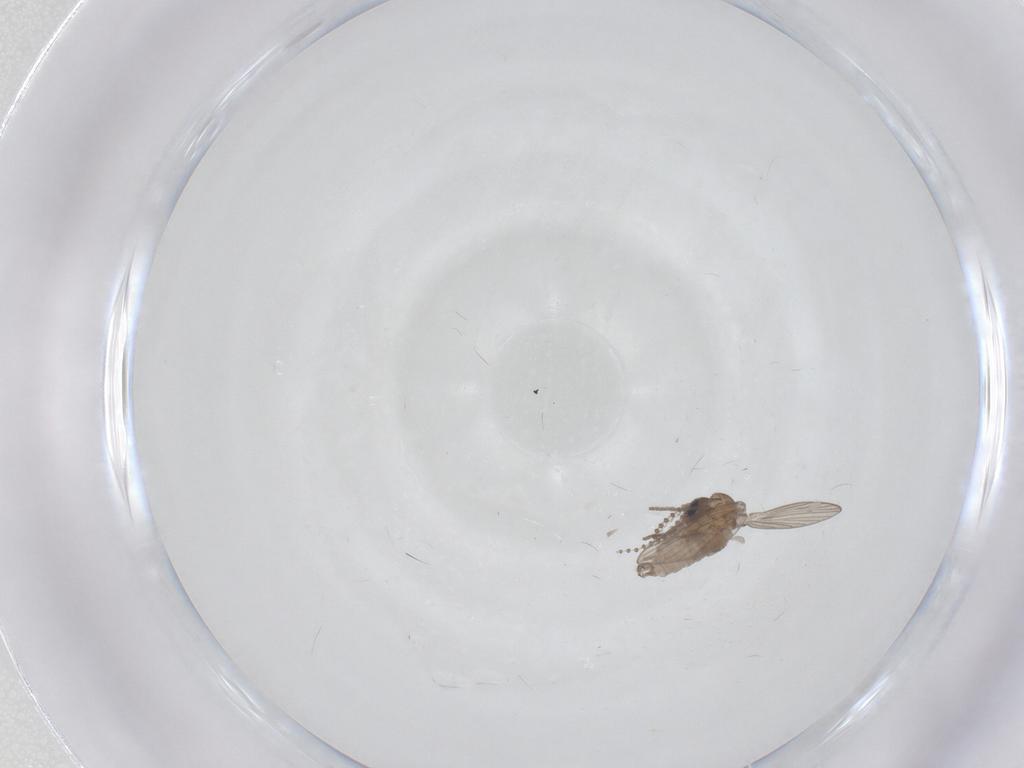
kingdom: Animalia
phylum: Arthropoda
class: Insecta
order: Diptera
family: Psychodidae
